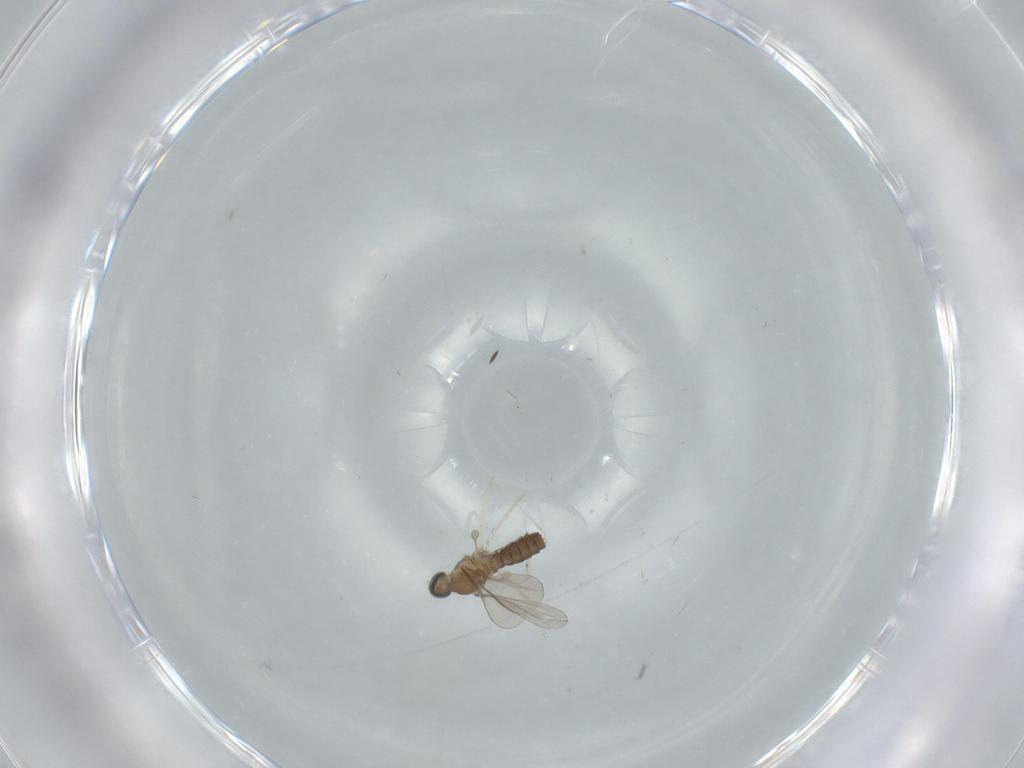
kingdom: Animalia
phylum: Arthropoda
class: Insecta
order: Diptera
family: Cecidomyiidae
